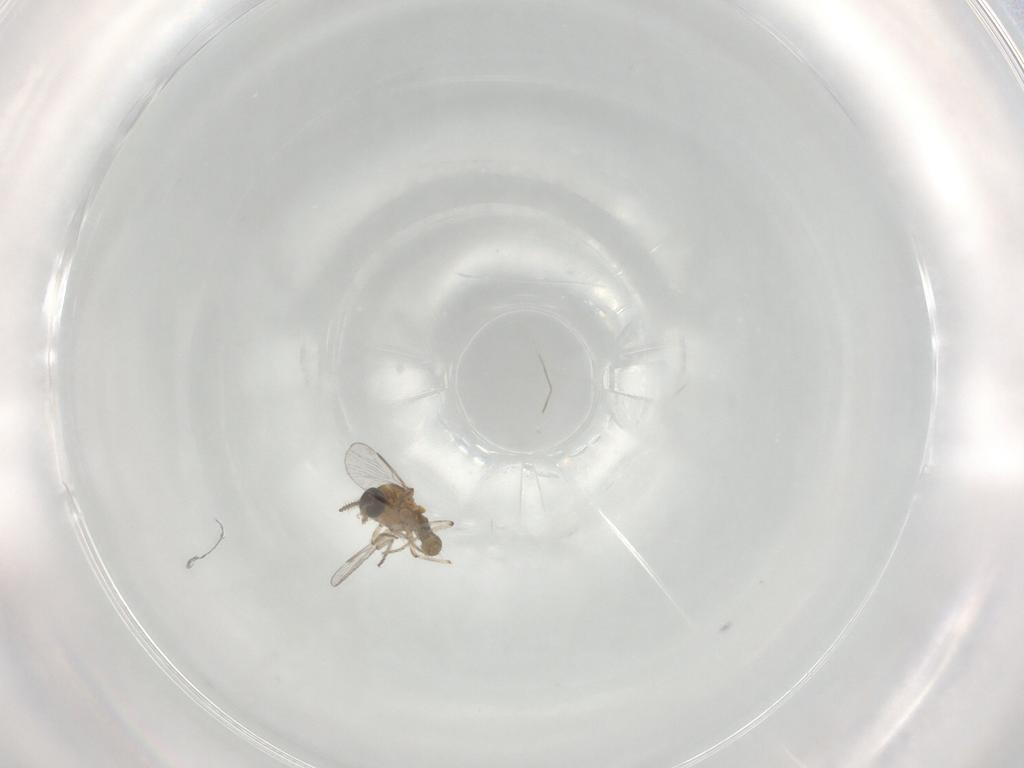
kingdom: Animalia
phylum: Arthropoda
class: Insecta
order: Diptera
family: Ceratopogonidae
